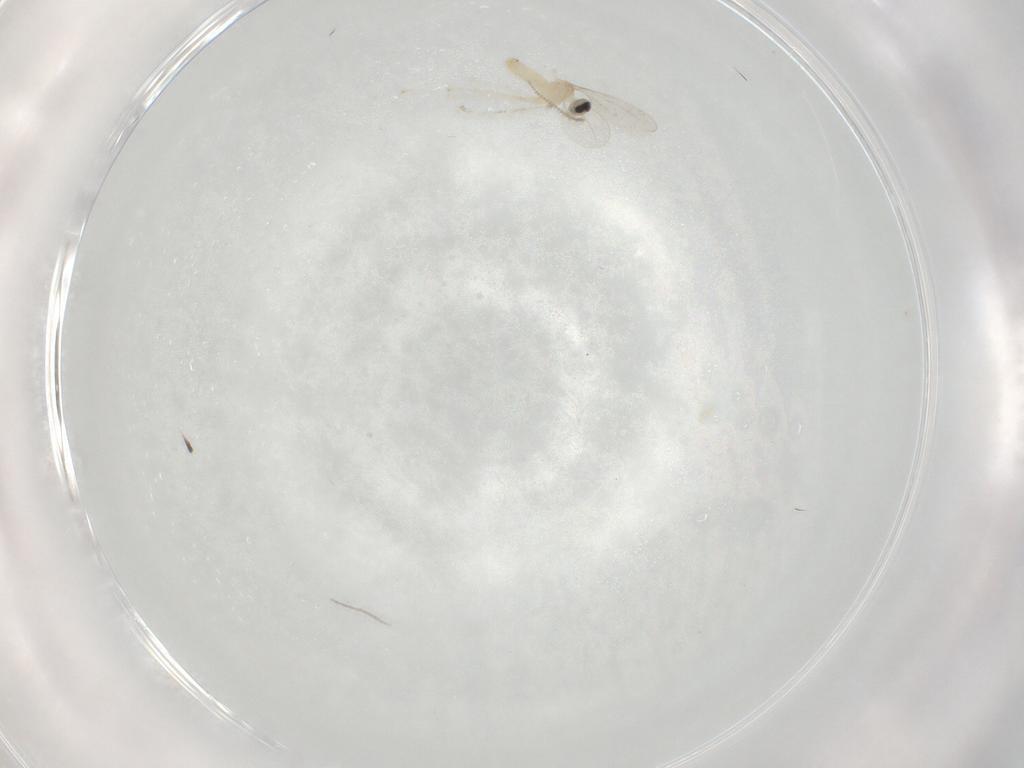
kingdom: Animalia
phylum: Arthropoda
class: Insecta
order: Diptera
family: Cecidomyiidae
